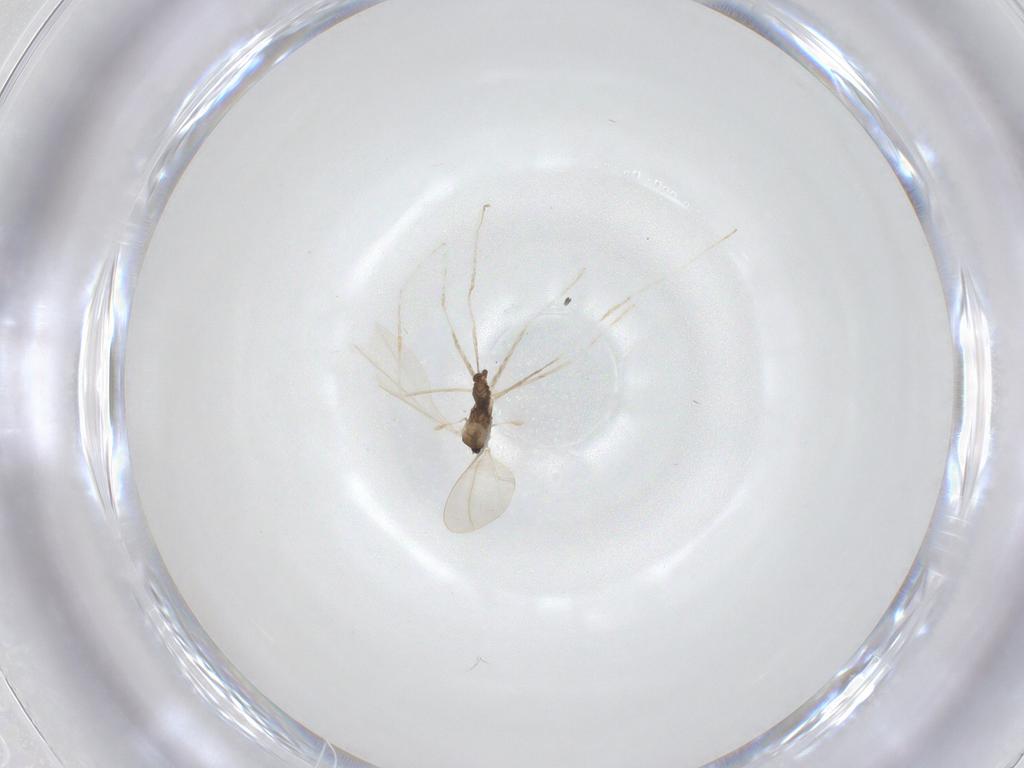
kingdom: Animalia
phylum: Arthropoda
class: Insecta
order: Diptera
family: Cecidomyiidae
